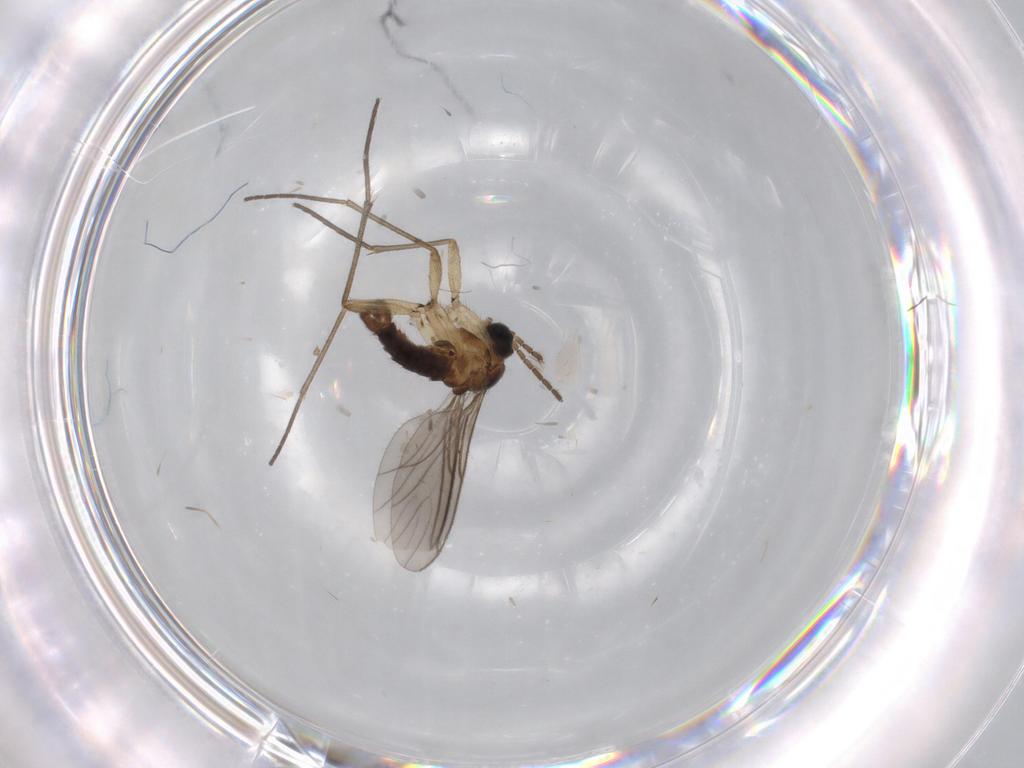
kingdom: Animalia
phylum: Arthropoda
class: Insecta
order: Diptera
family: Sciaridae
